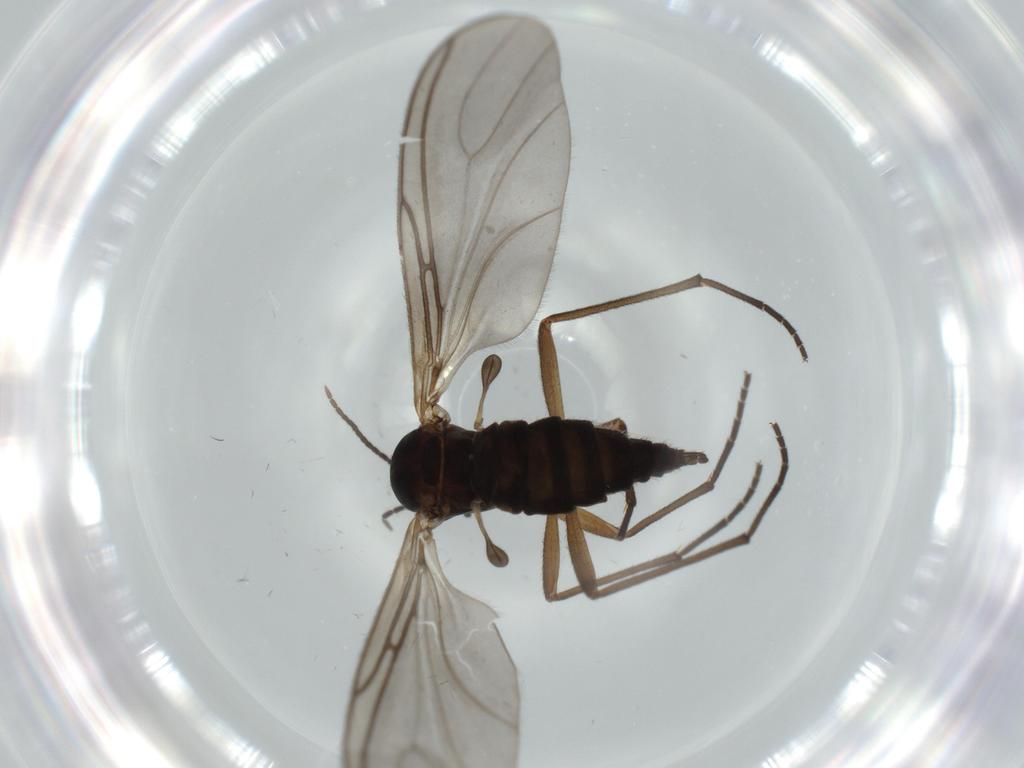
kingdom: Animalia
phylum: Arthropoda
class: Insecta
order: Diptera
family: Sciaridae
